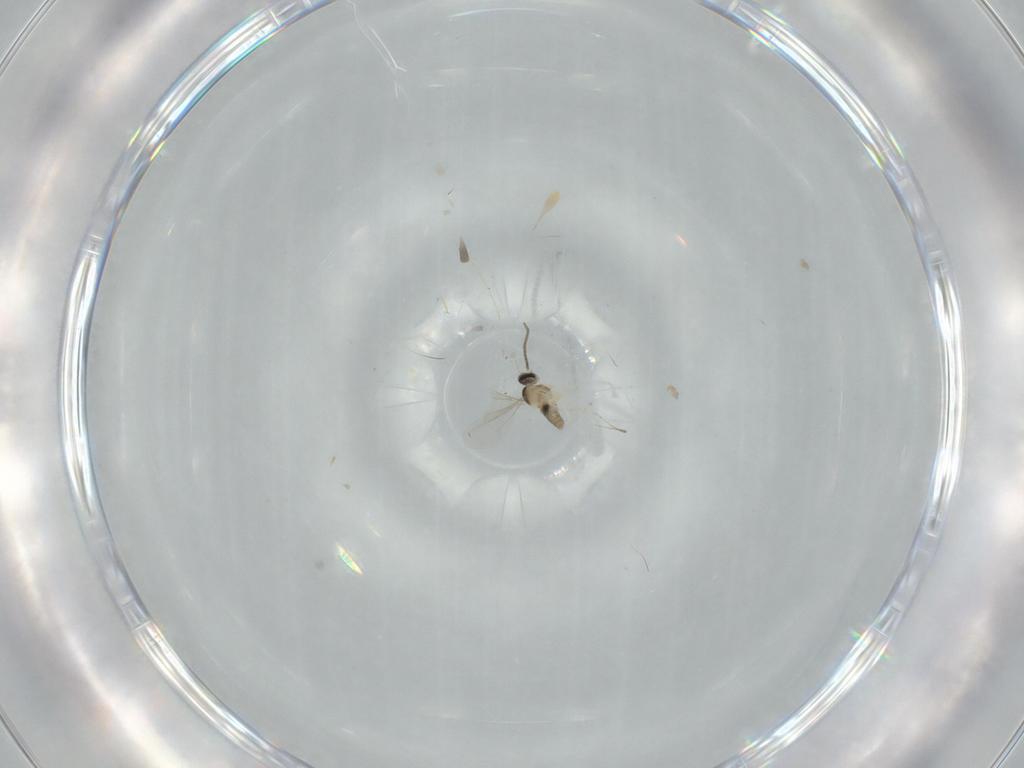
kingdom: Animalia
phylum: Arthropoda
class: Insecta
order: Diptera
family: Cecidomyiidae
